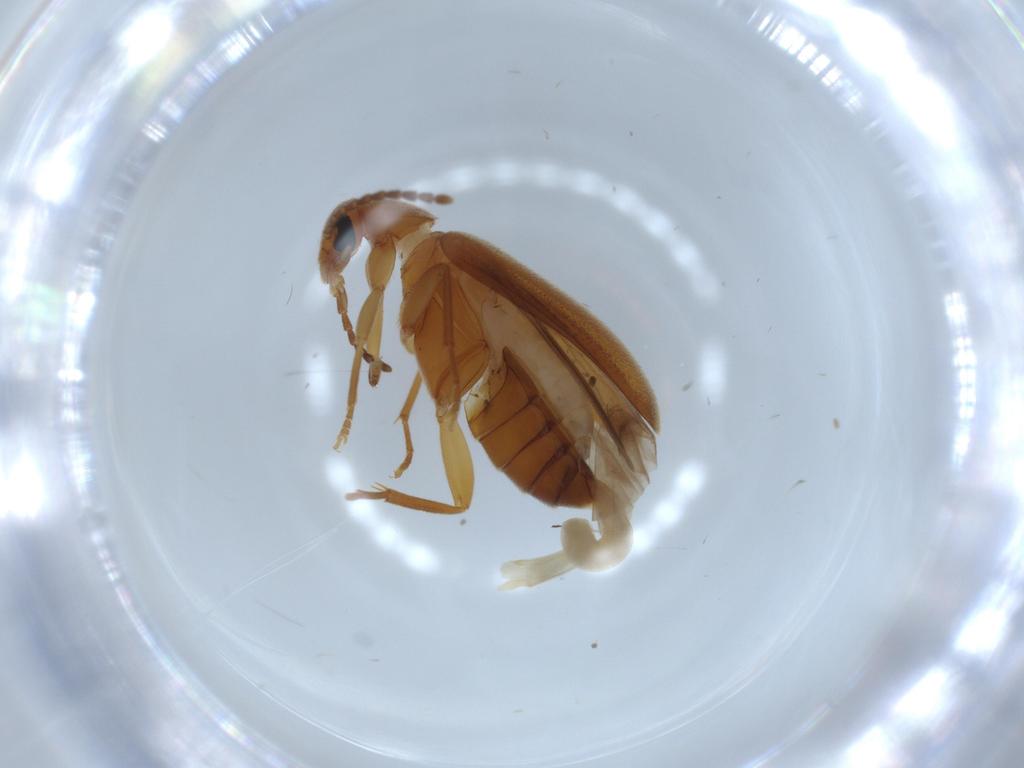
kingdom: Animalia
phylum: Arthropoda
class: Insecta
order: Coleoptera
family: Scraptiidae
